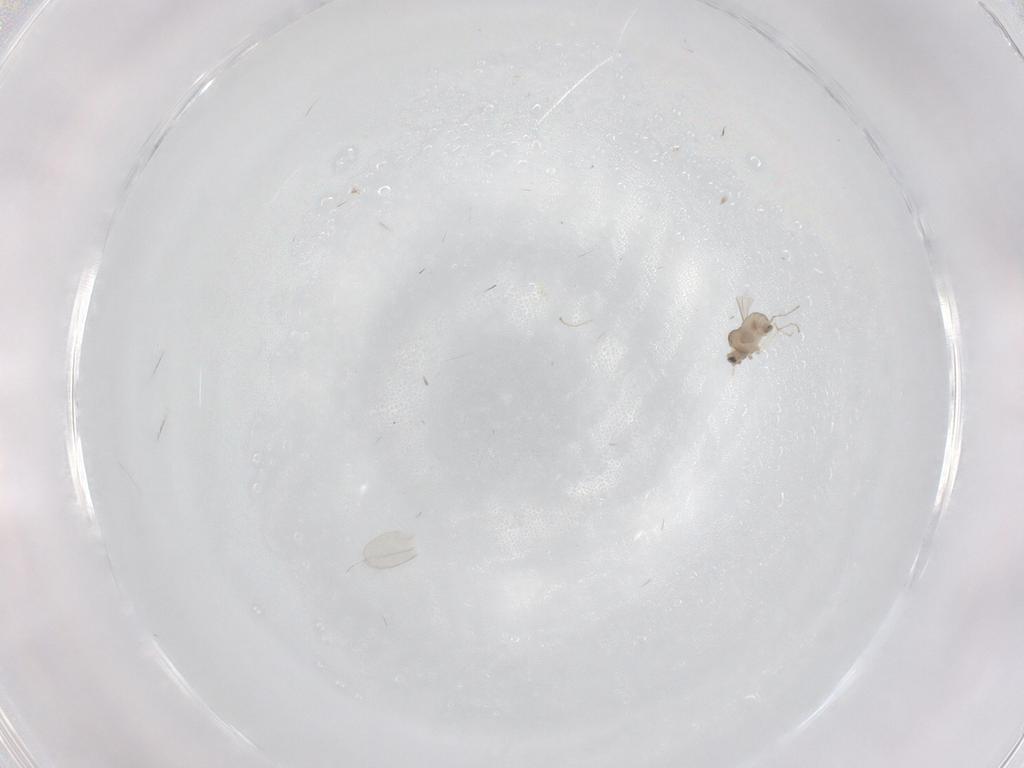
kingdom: Animalia
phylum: Arthropoda
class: Insecta
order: Diptera
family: Cecidomyiidae
